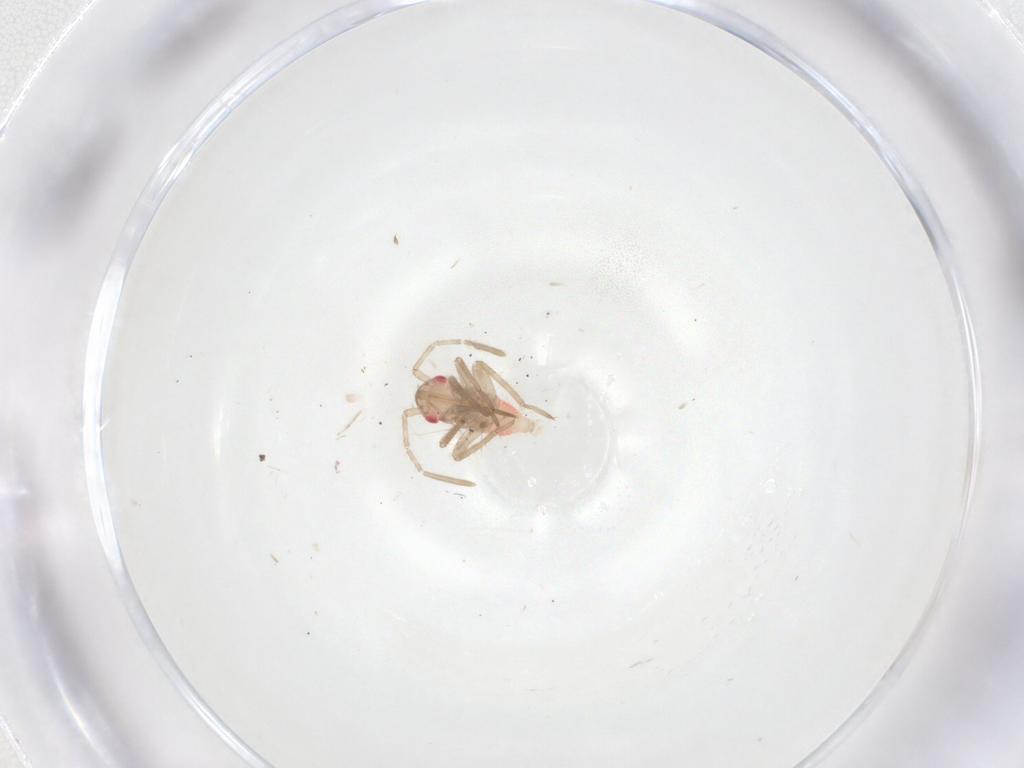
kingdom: Animalia
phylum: Arthropoda
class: Insecta
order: Hemiptera
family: Miridae
